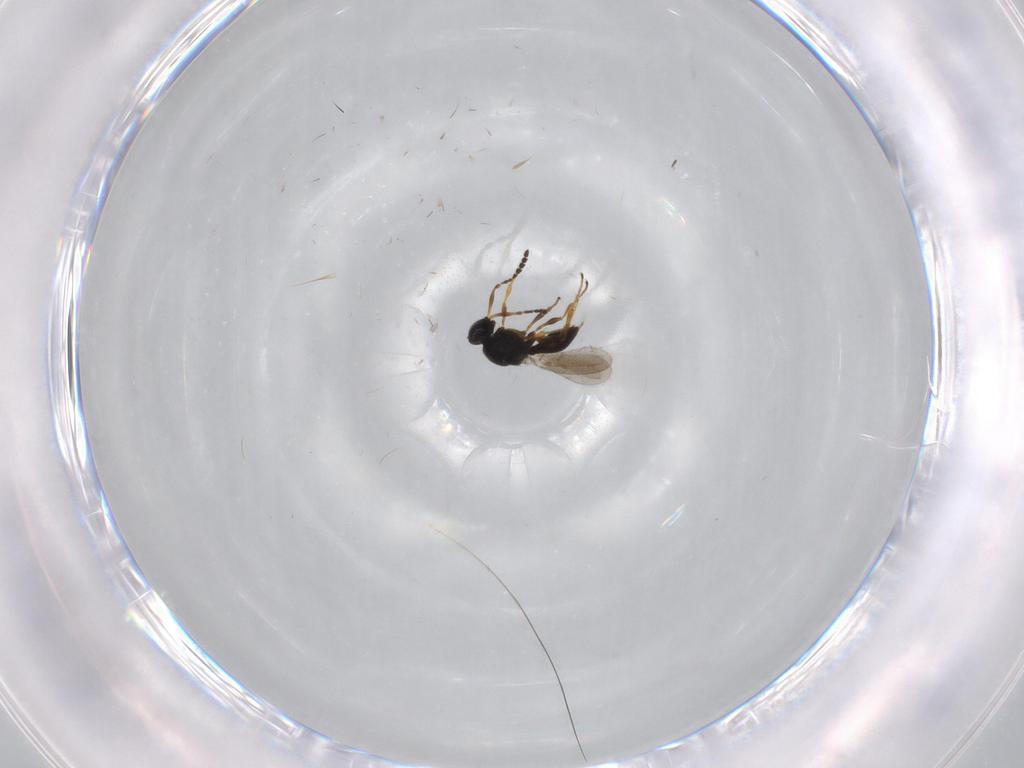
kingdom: Animalia
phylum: Arthropoda
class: Insecta
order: Hymenoptera
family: Platygastridae
